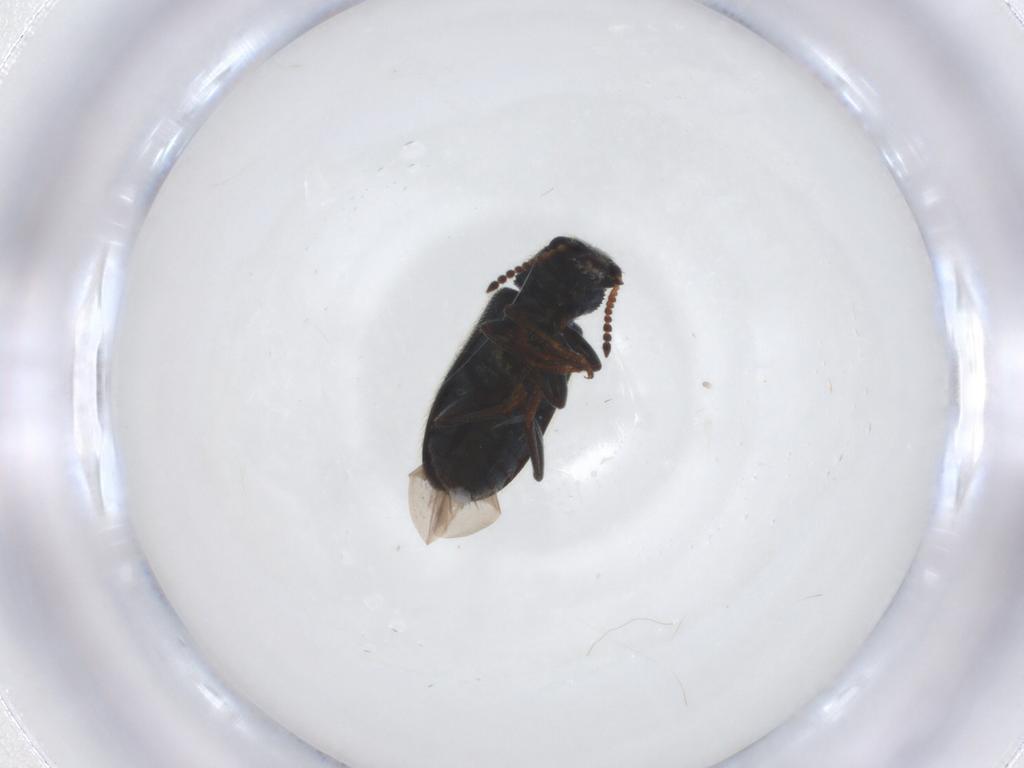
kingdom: Animalia
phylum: Arthropoda
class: Insecta
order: Coleoptera
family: Melyridae
